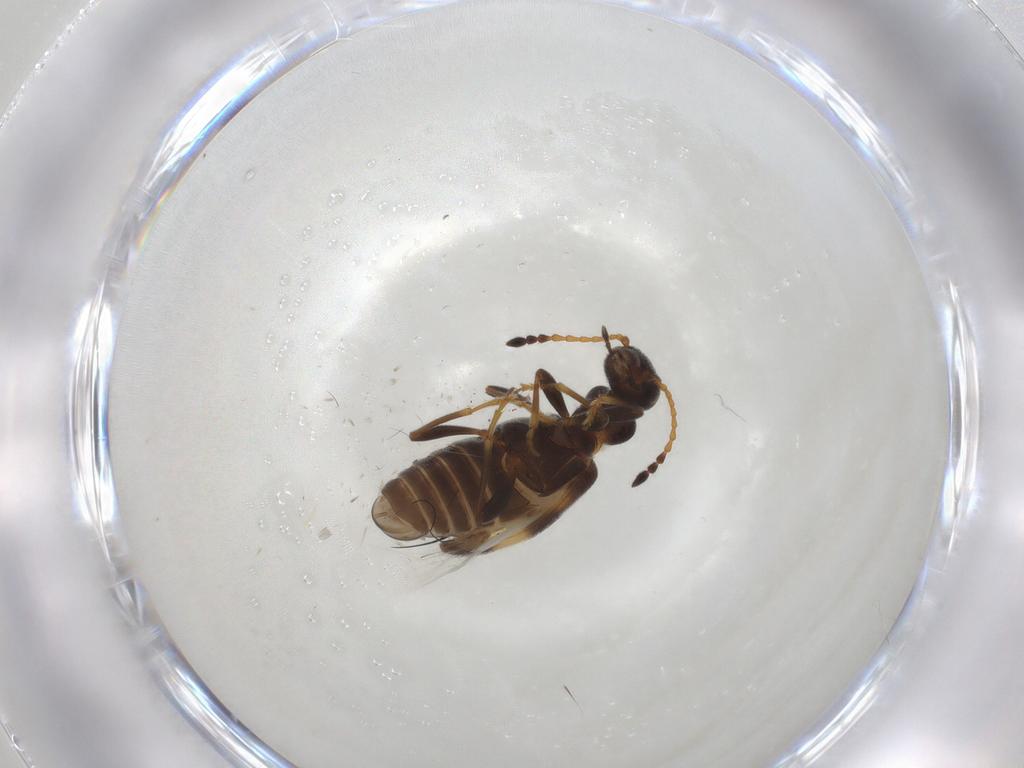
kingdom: Animalia
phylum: Arthropoda
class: Insecta
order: Coleoptera
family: Anthicidae
